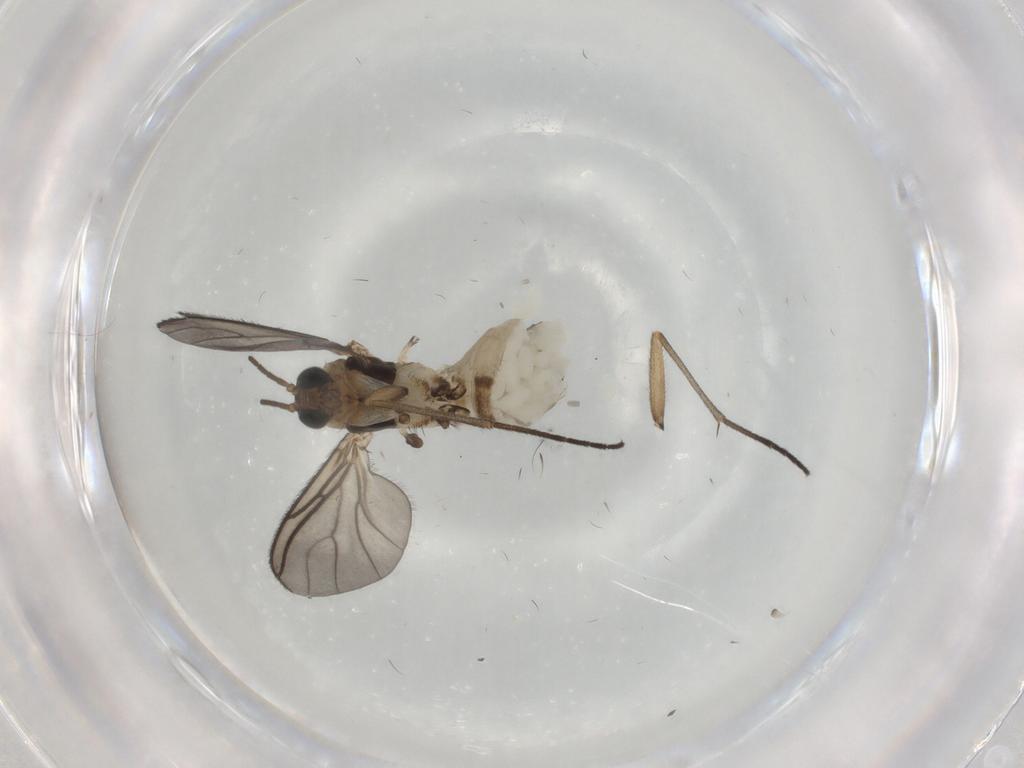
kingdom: Animalia
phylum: Arthropoda
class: Insecta
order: Diptera
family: Sciaridae
